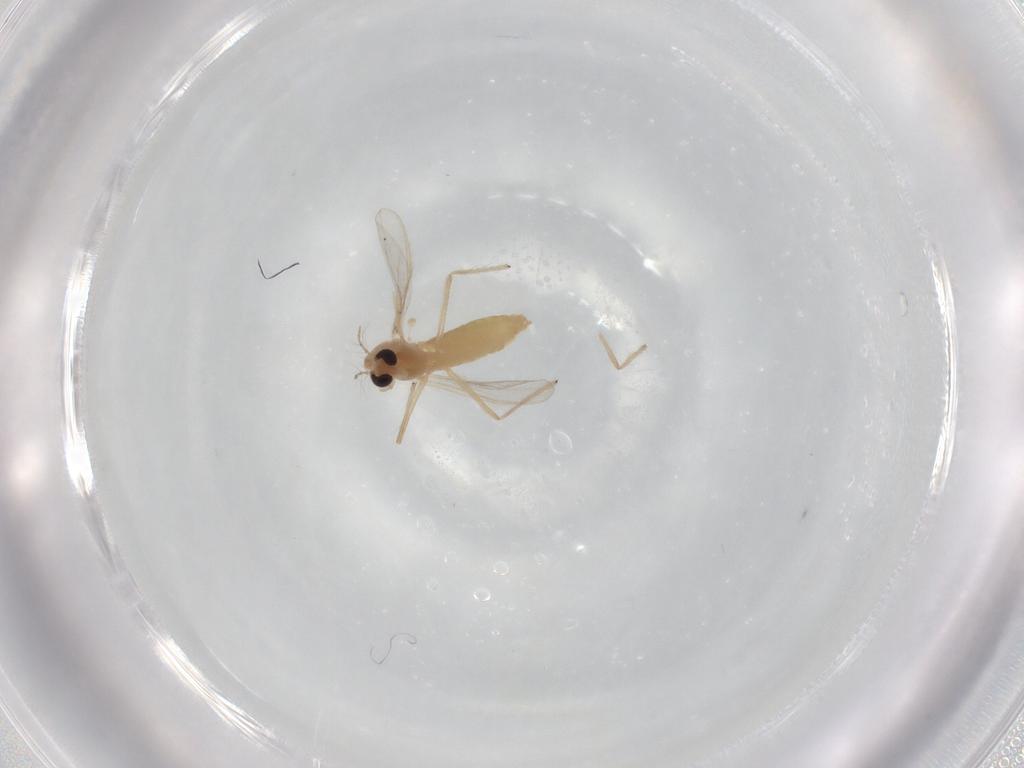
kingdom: Animalia
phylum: Arthropoda
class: Insecta
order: Diptera
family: Chironomidae
